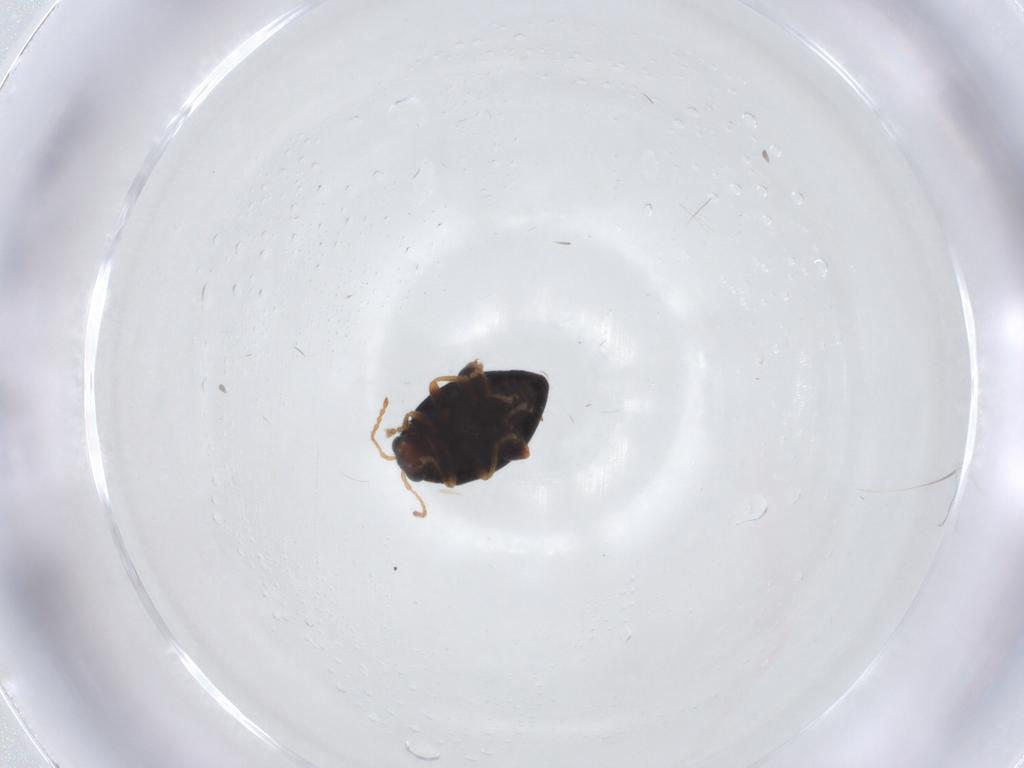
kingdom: Animalia
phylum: Arthropoda
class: Insecta
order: Coleoptera
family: Chrysomelidae
